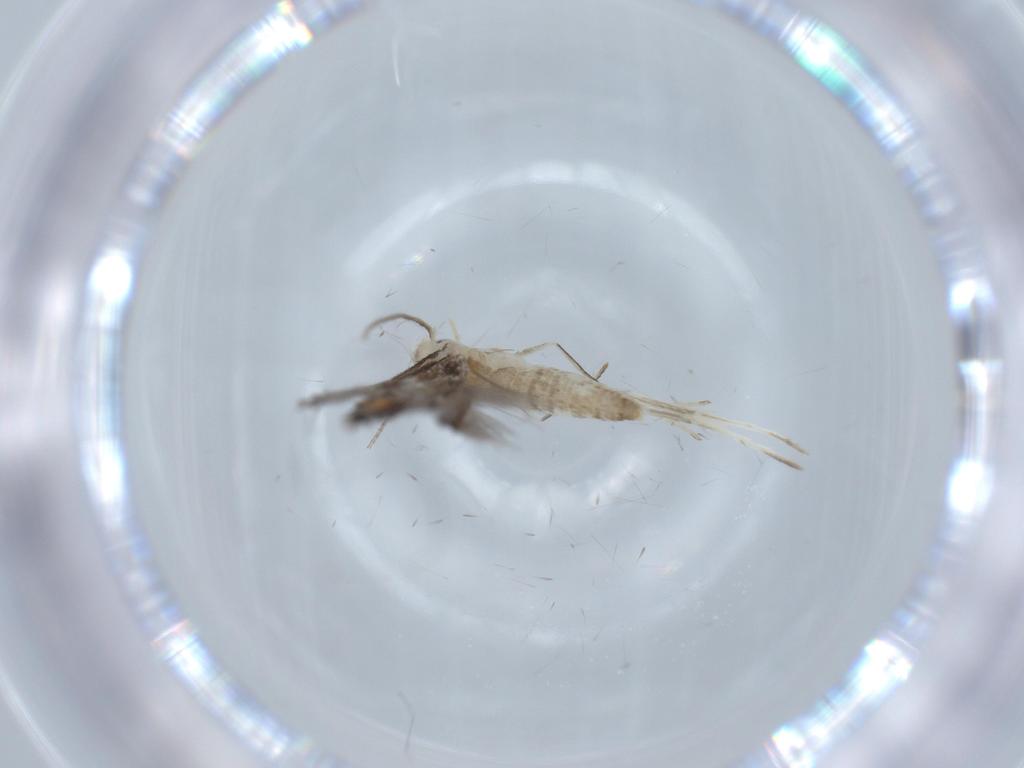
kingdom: Animalia
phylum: Arthropoda
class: Insecta
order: Lepidoptera
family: Gracillariidae
